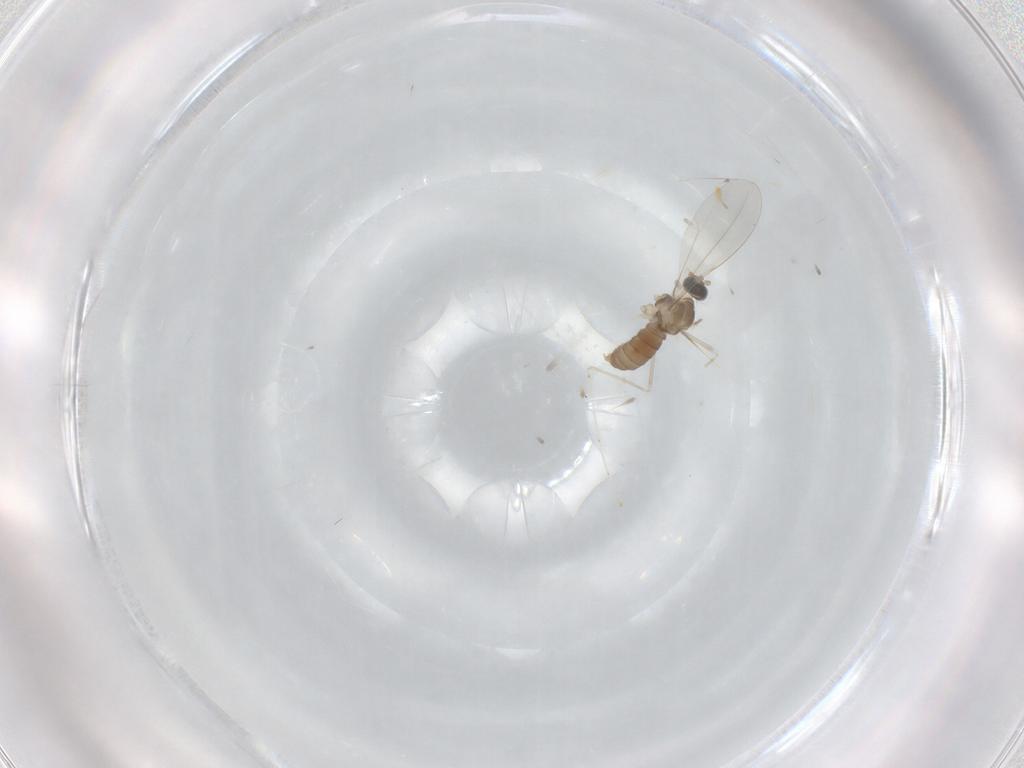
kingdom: Animalia
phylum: Arthropoda
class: Insecta
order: Diptera
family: Cecidomyiidae
